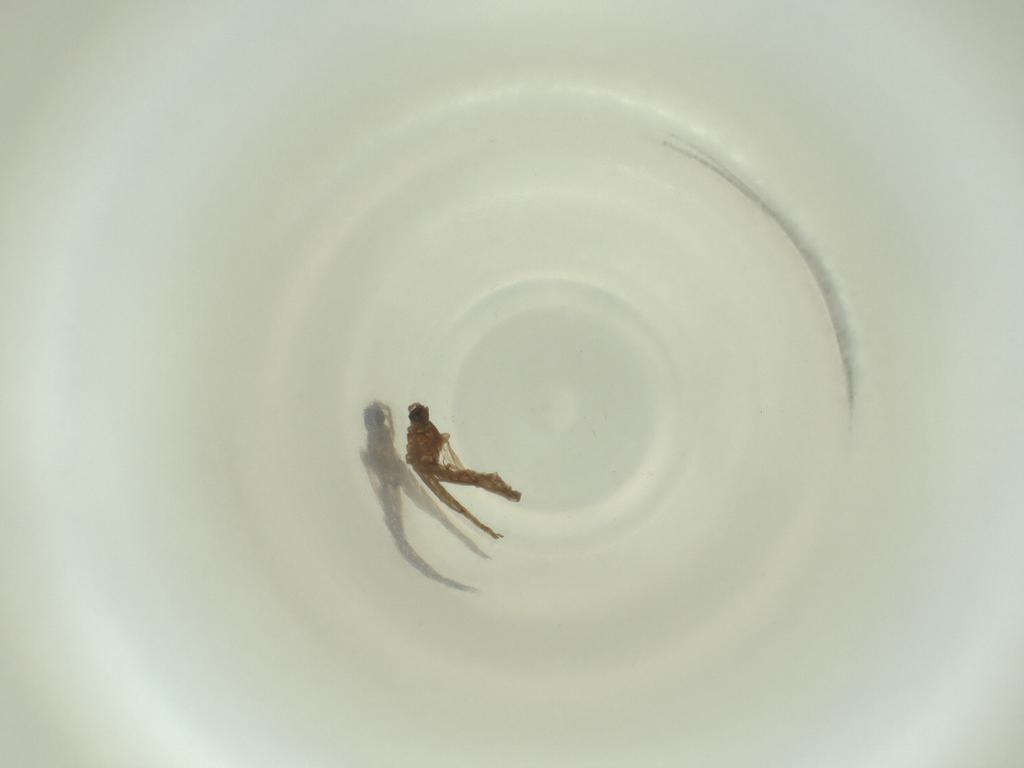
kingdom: Animalia
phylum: Arthropoda
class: Insecta
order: Diptera
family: Cecidomyiidae
